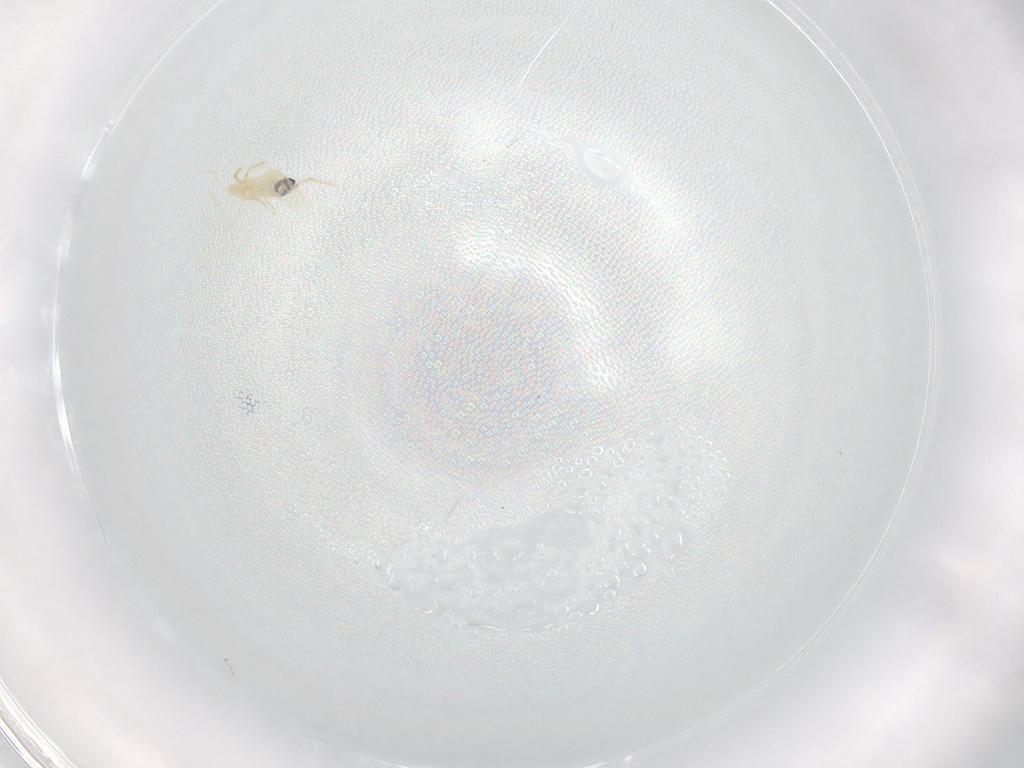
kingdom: Animalia
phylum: Arthropoda
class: Insecta
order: Diptera
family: Cecidomyiidae
